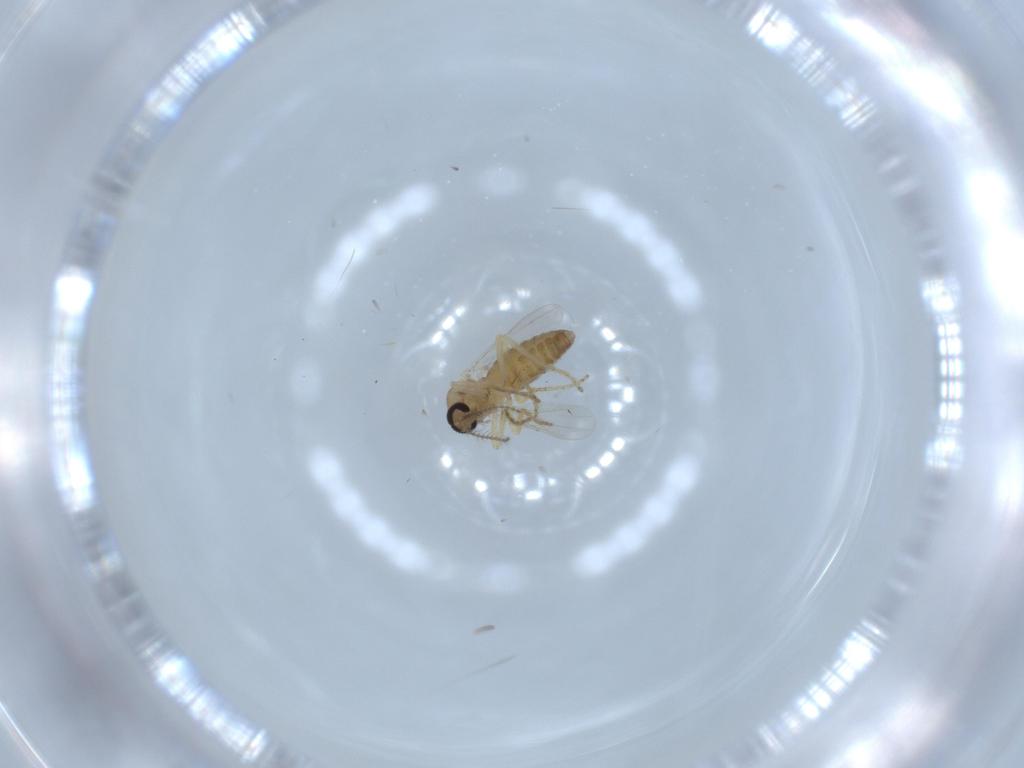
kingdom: Animalia
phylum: Arthropoda
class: Insecta
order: Diptera
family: Ceratopogonidae
